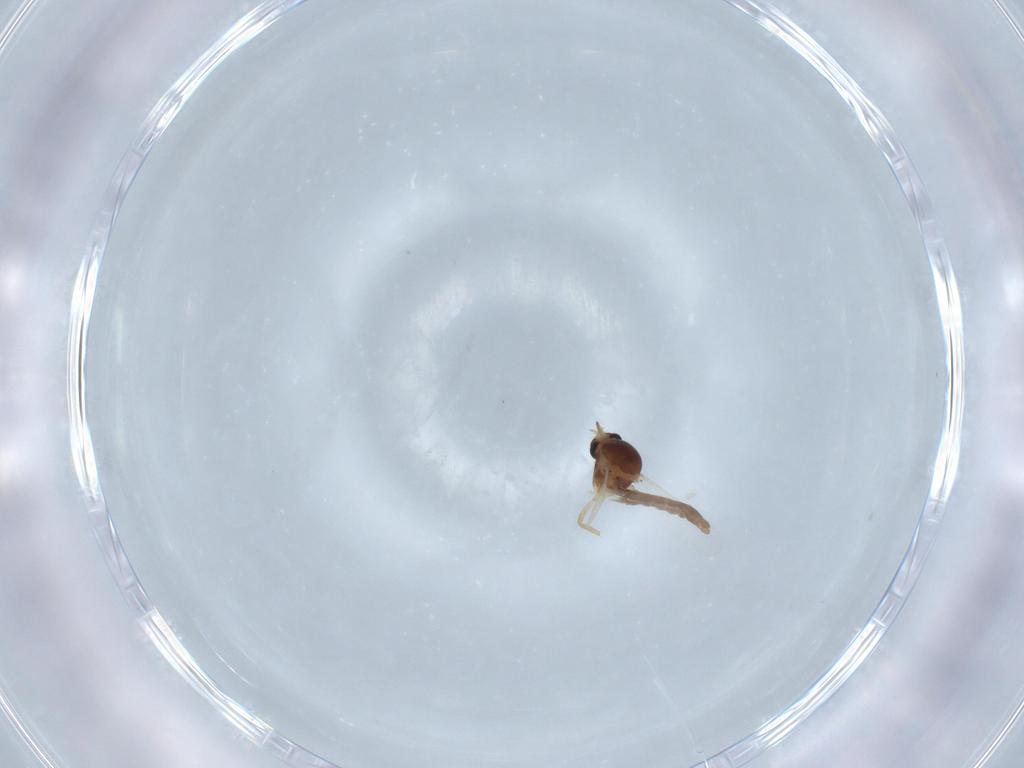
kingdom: Animalia
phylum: Arthropoda
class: Insecta
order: Diptera
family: Ceratopogonidae
